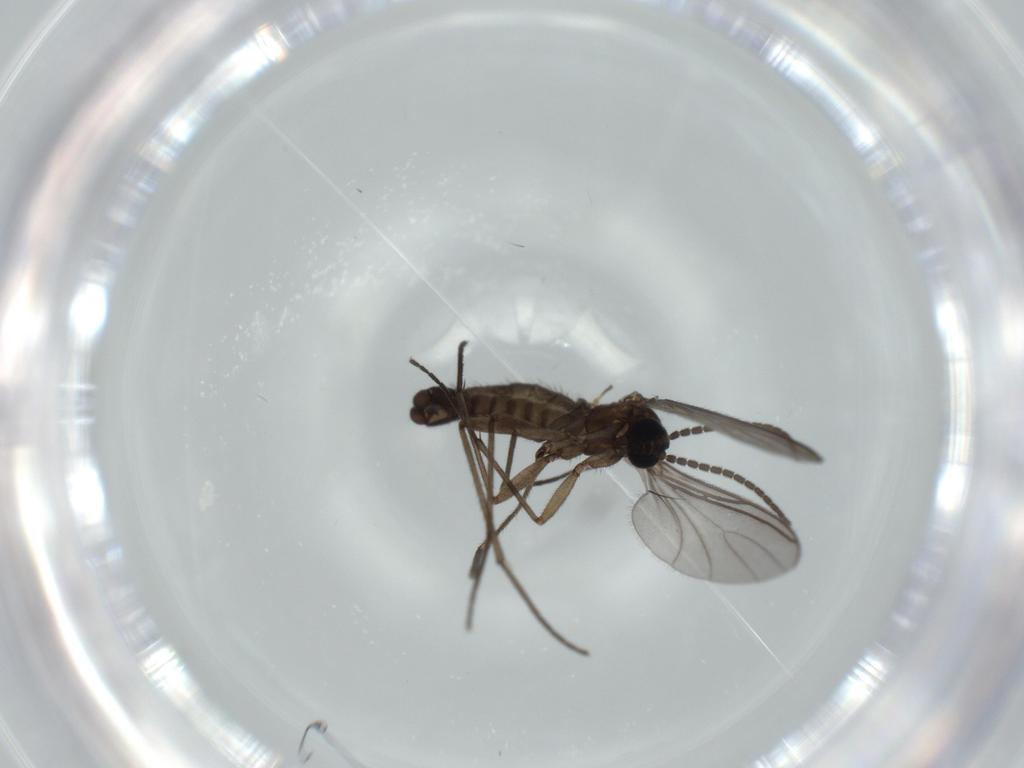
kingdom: Animalia
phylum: Arthropoda
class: Insecta
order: Diptera
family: Sciaridae
